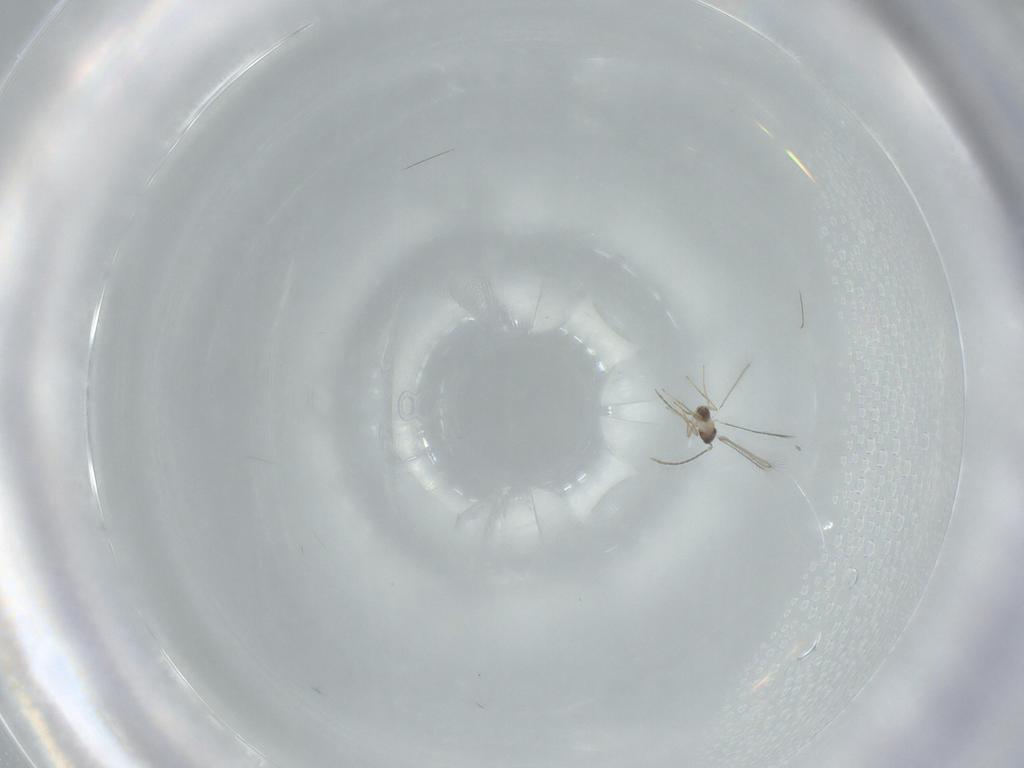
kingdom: Animalia
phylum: Arthropoda
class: Insecta
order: Hymenoptera
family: Mymaridae
